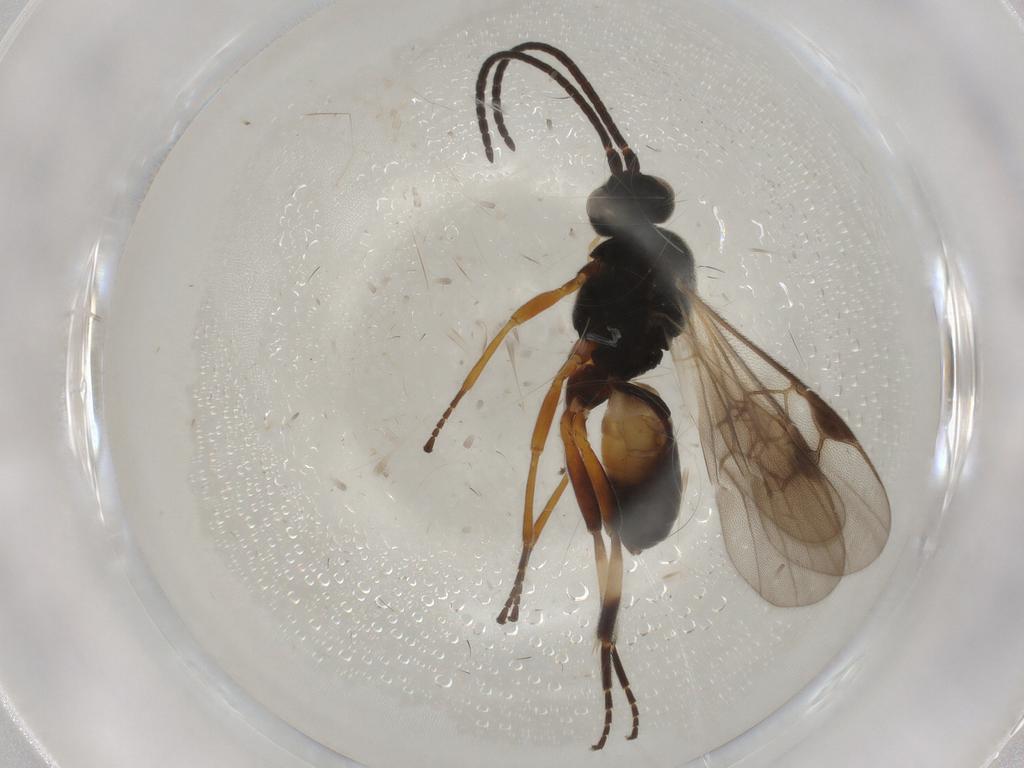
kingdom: Animalia
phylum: Arthropoda
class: Insecta
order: Hymenoptera
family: Braconidae
